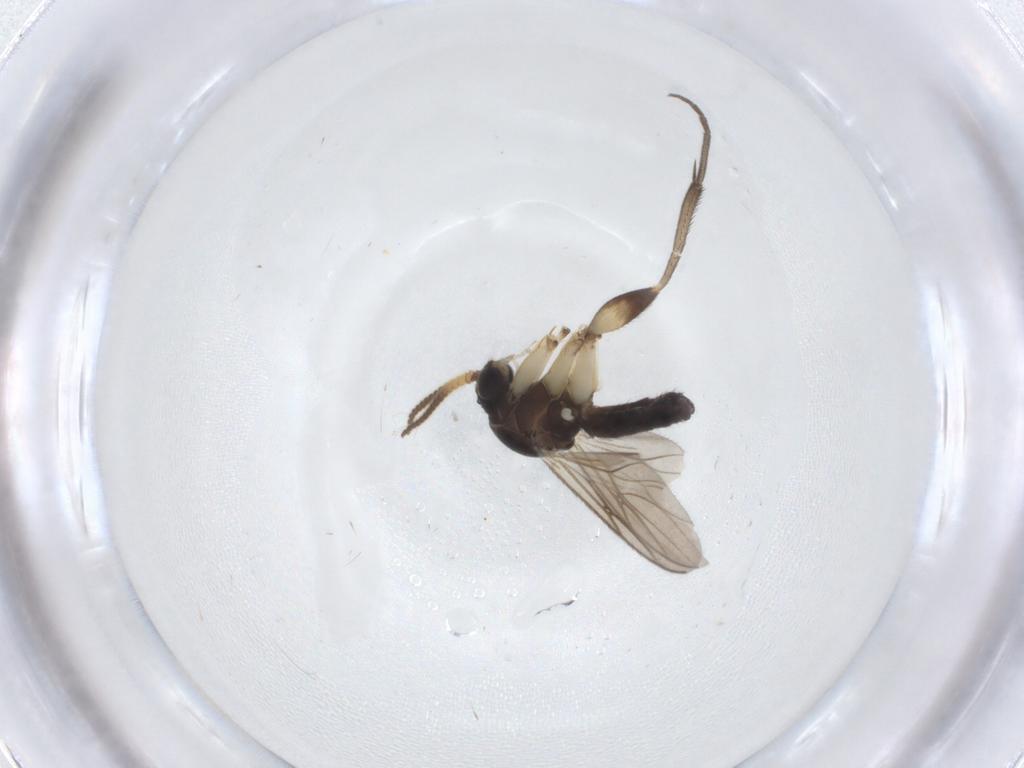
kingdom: Animalia
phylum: Arthropoda
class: Insecta
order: Diptera
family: Mycetophilidae
